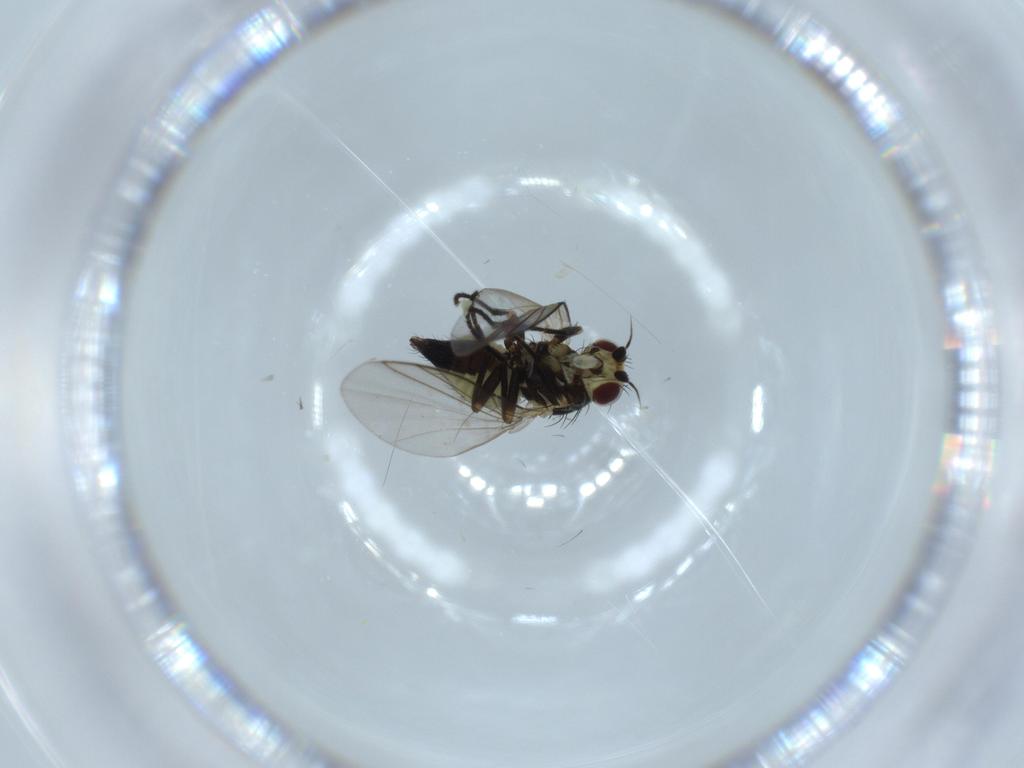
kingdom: Animalia
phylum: Arthropoda
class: Insecta
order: Diptera
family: Agromyzidae
